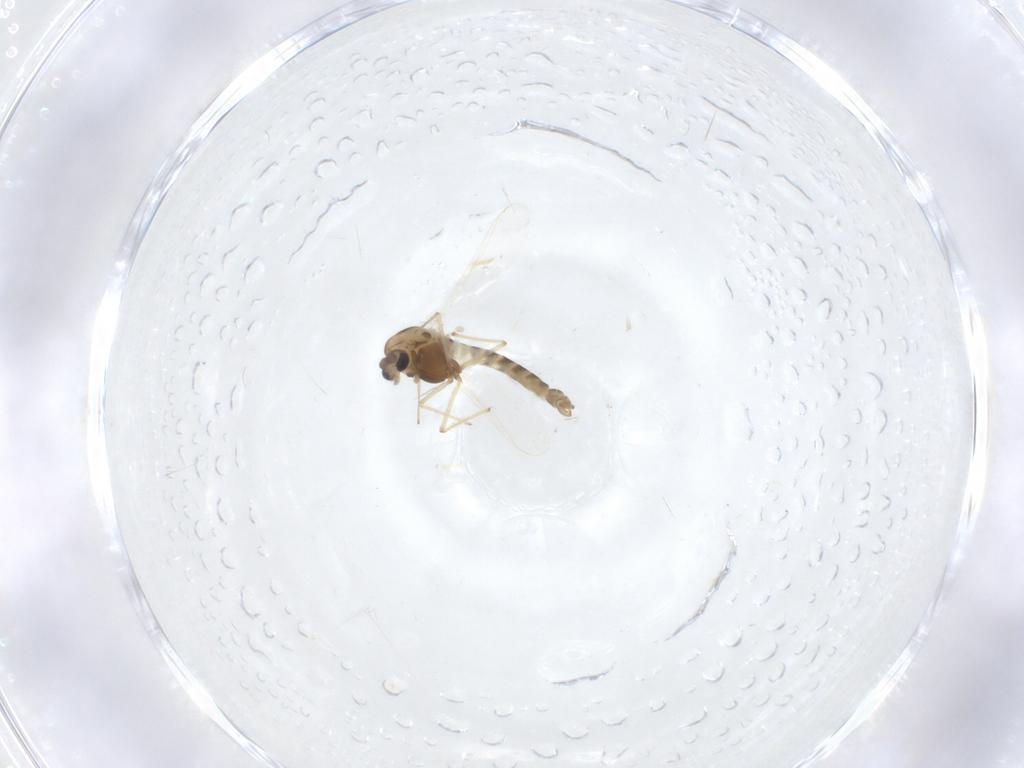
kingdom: Animalia
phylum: Arthropoda
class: Insecta
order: Diptera
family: Chironomidae
